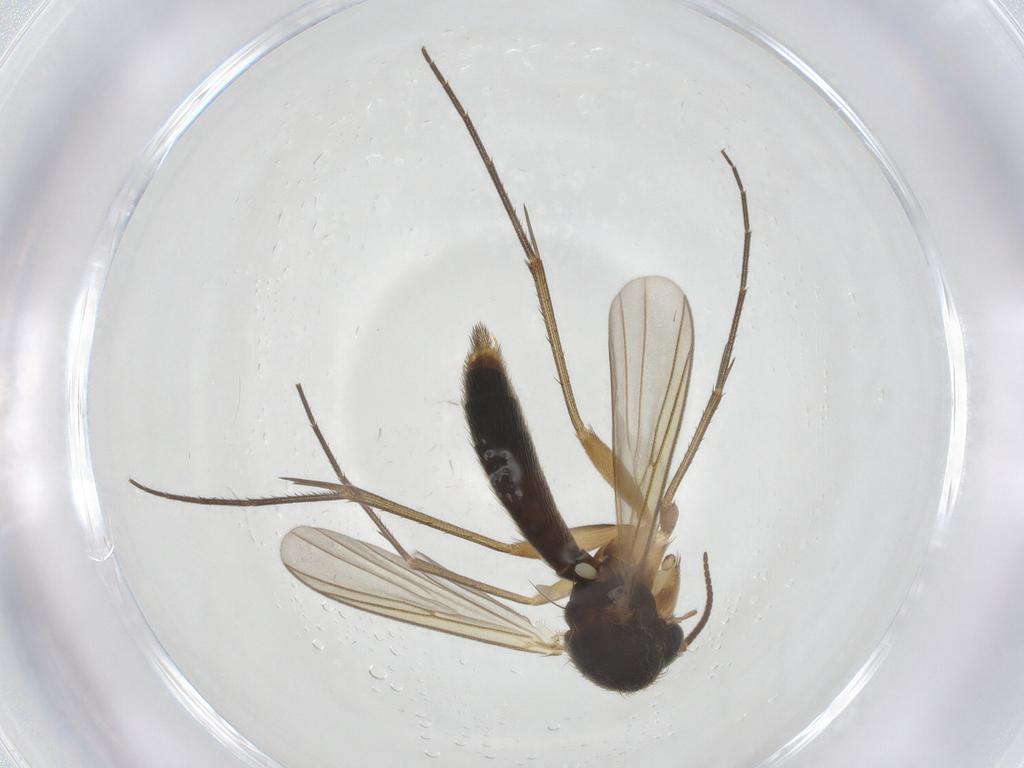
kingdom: Animalia
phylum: Arthropoda
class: Insecta
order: Diptera
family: Mycetophilidae
